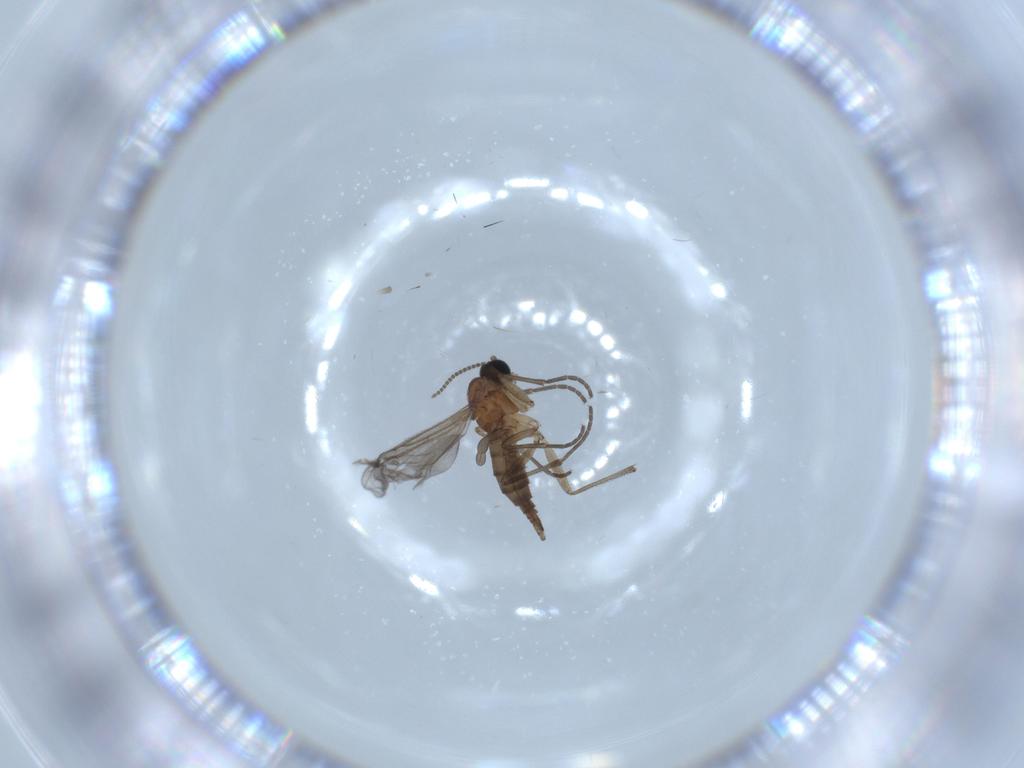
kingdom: Animalia
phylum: Arthropoda
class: Insecta
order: Diptera
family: Sciaridae
